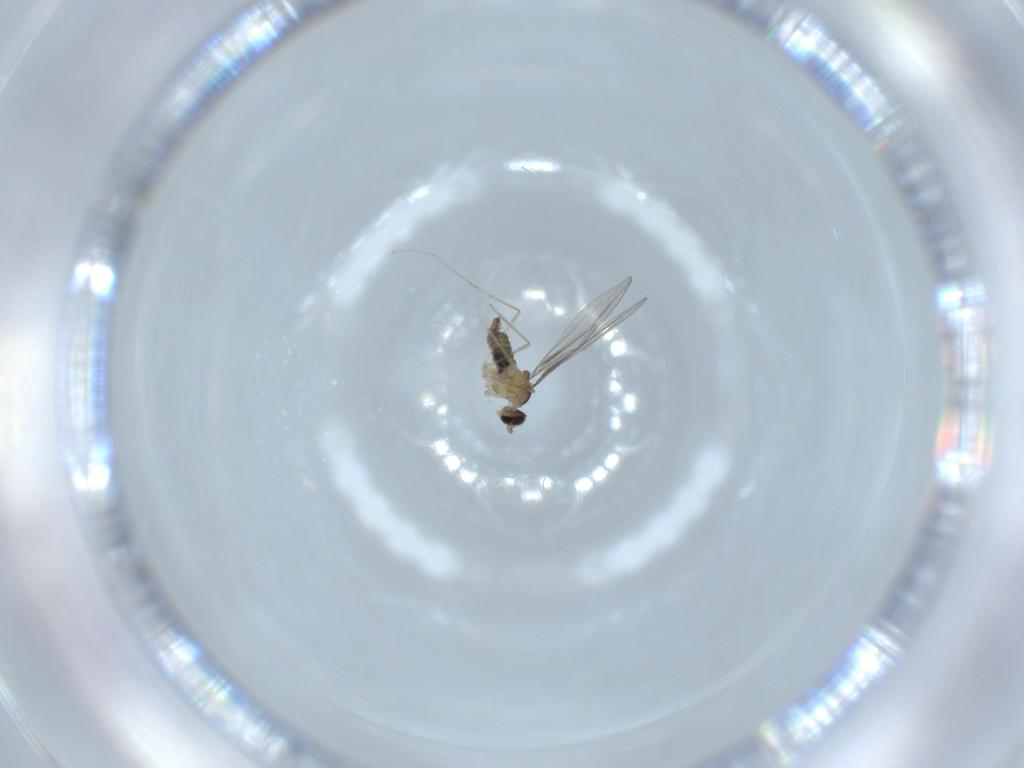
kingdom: Animalia
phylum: Arthropoda
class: Insecta
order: Diptera
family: Cecidomyiidae
